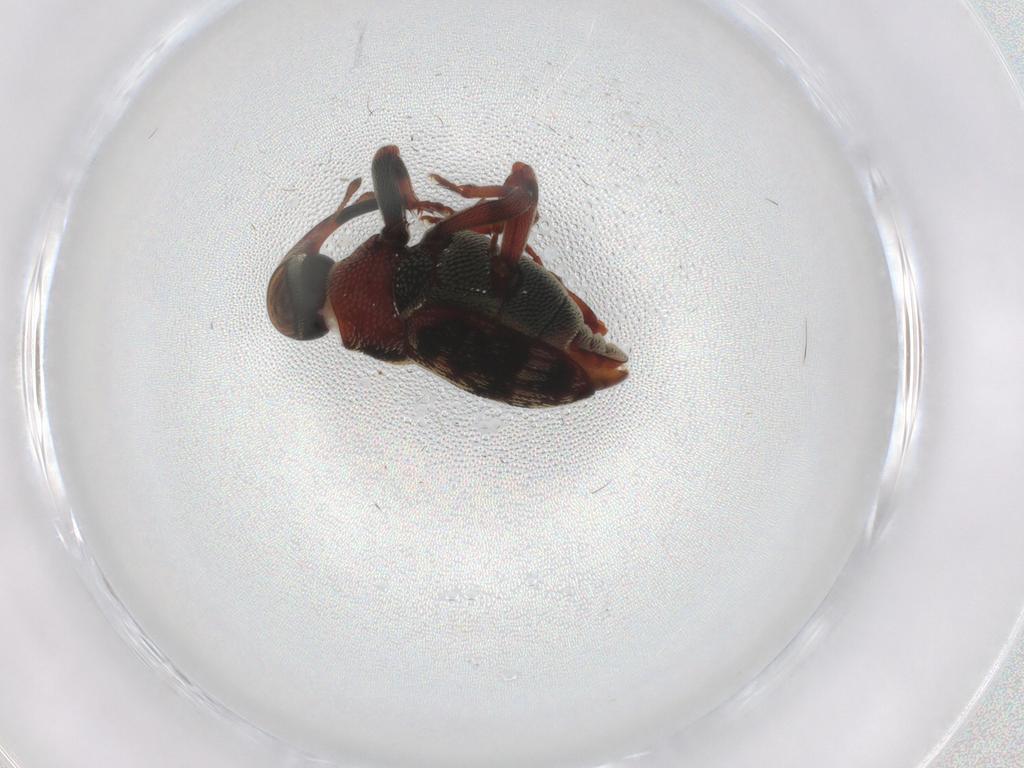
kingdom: Animalia
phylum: Arthropoda
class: Insecta
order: Coleoptera
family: Curculionidae
